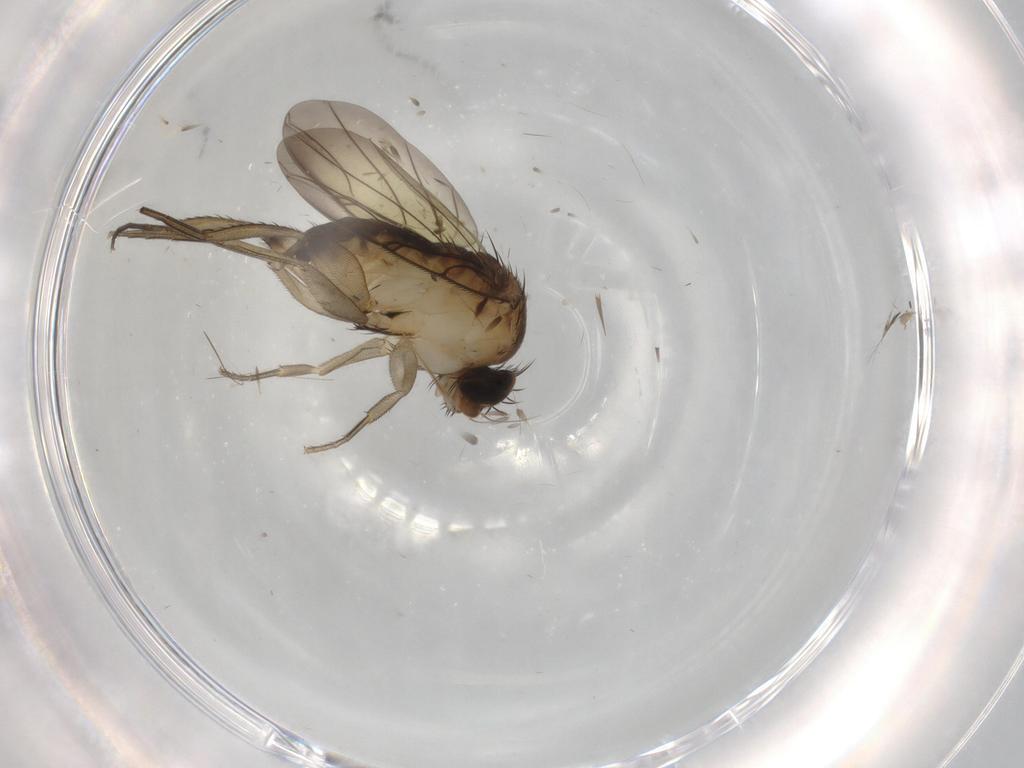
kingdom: Animalia
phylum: Arthropoda
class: Insecta
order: Diptera
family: Phoridae
